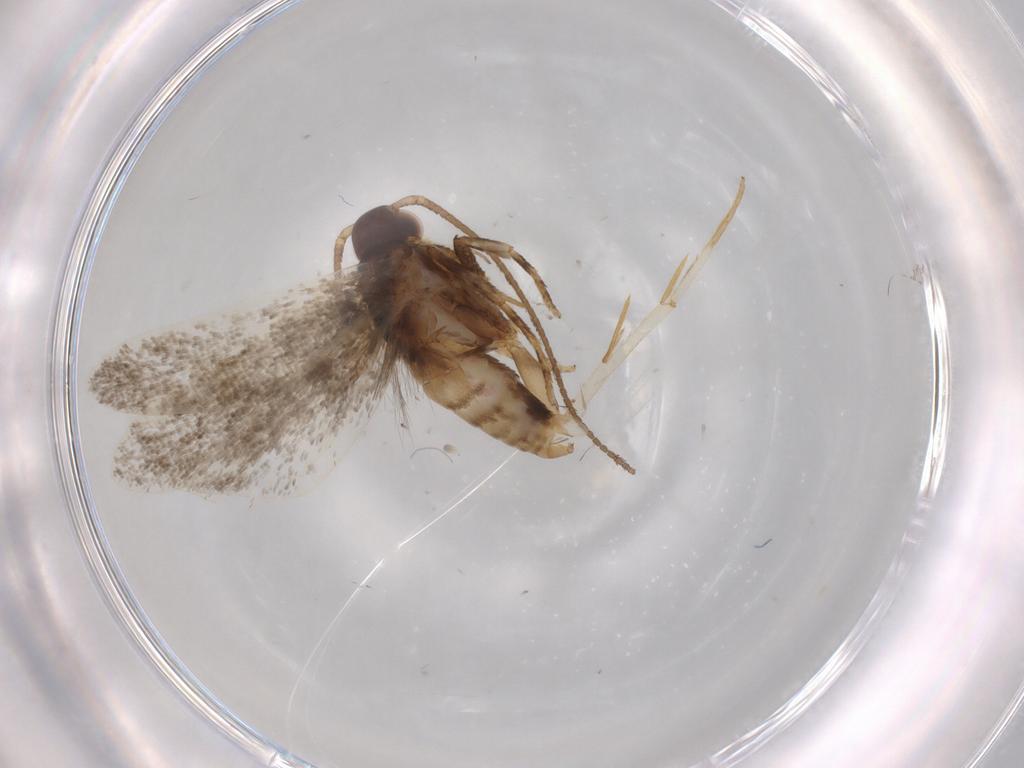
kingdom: Animalia
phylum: Arthropoda
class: Insecta
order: Lepidoptera
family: Autostichidae
